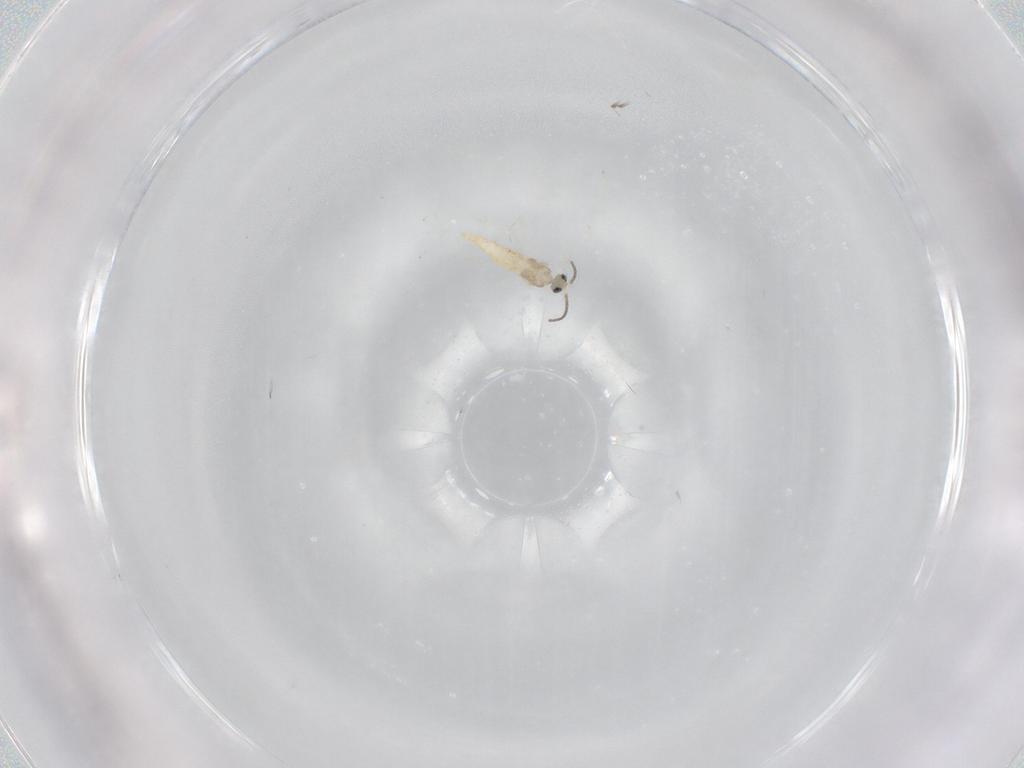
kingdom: Animalia
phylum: Arthropoda
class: Insecta
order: Diptera
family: Cecidomyiidae
